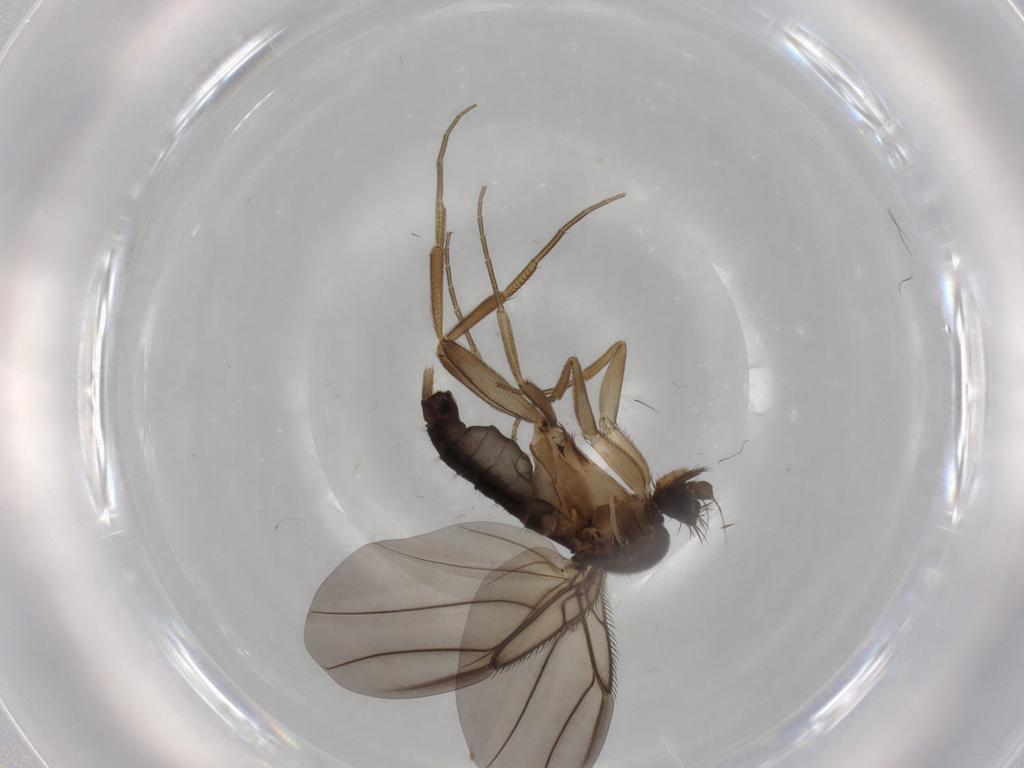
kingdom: Animalia
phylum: Arthropoda
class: Insecta
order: Diptera
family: Phoridae
